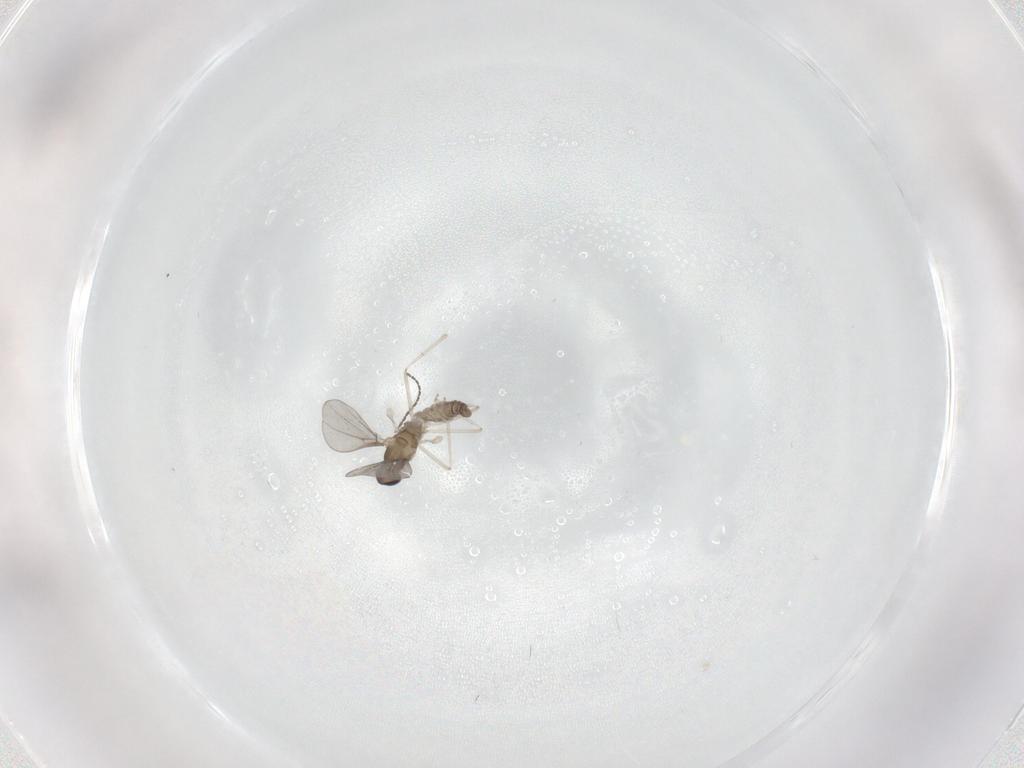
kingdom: Animalia
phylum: Arthropoda
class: Insecta
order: Diptera
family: Cecidomyiidae
